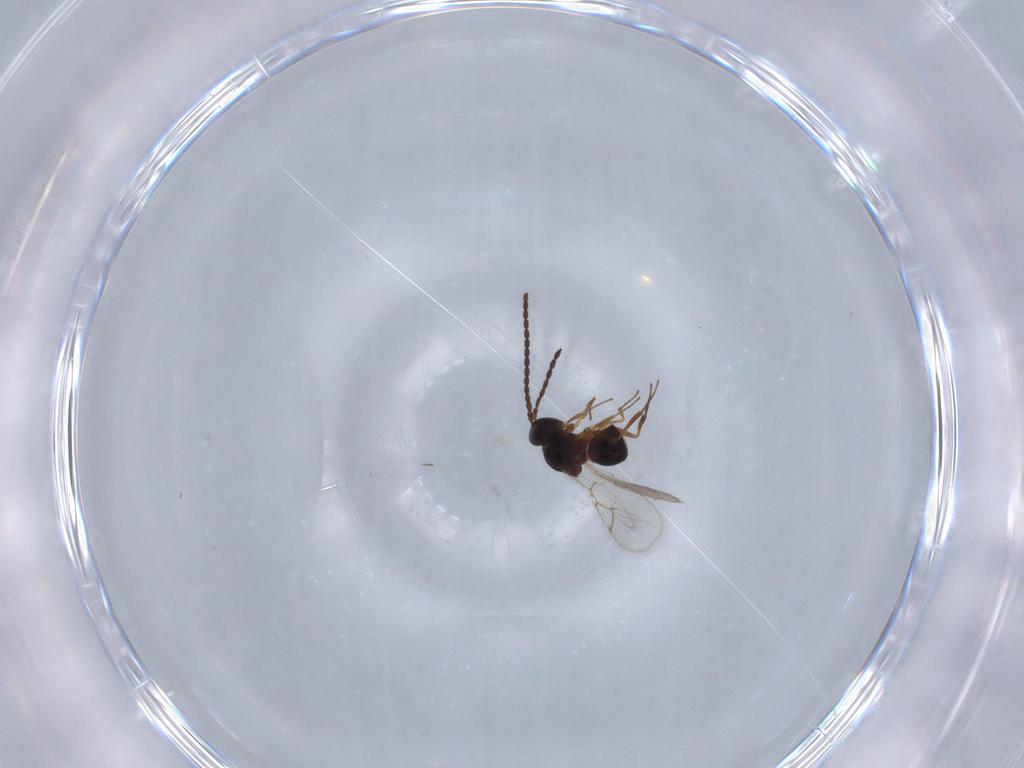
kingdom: Animalia
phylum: Arthropoda
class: Insecta
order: Hymenoptera
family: Figitidae
